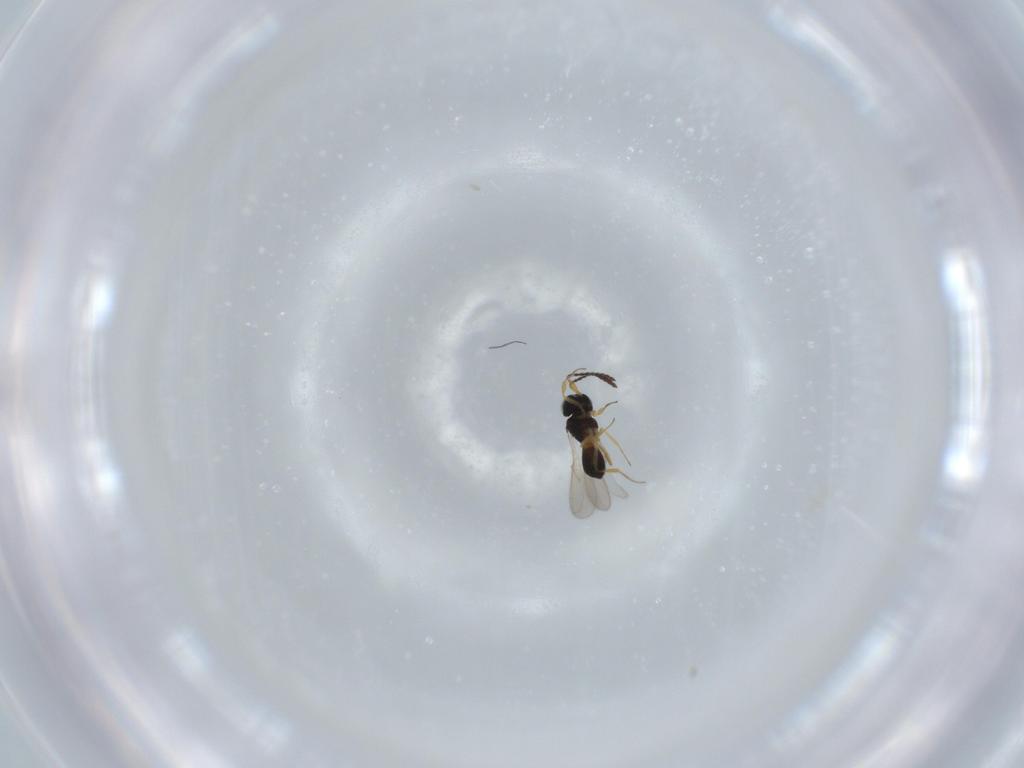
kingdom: Animalia
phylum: Arthropoda
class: Insecta
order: Hymenoptera
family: Scelionidae
